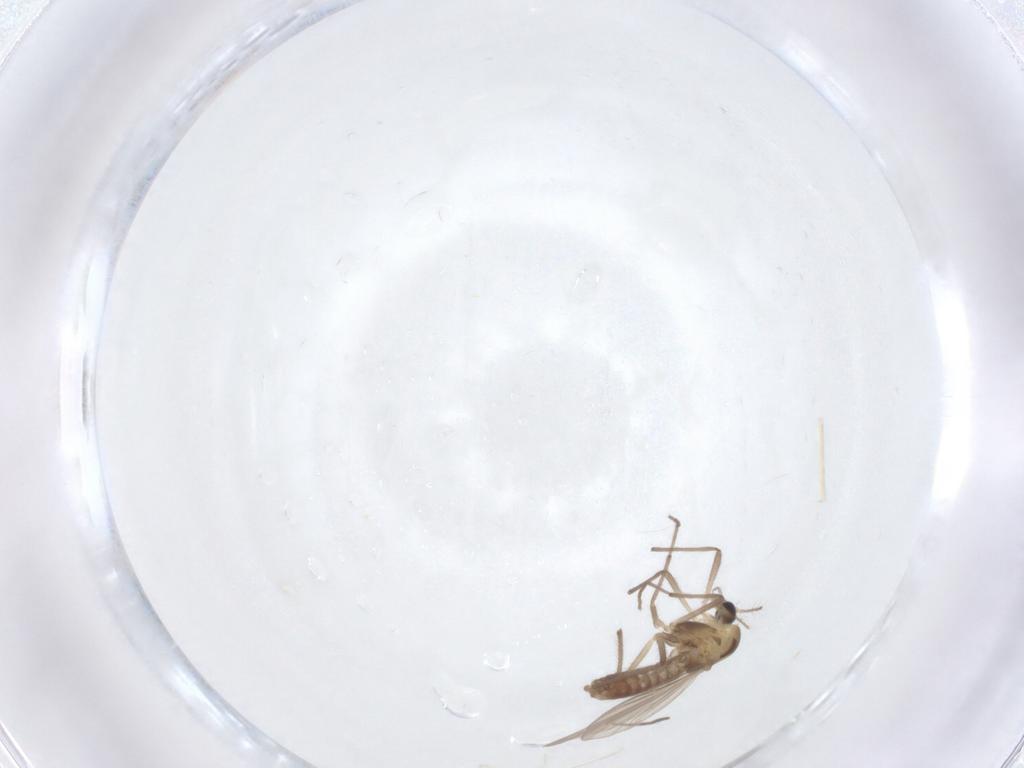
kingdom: Animalia
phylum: Arthropoda
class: Insecta
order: Diptera
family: Chironomidae
